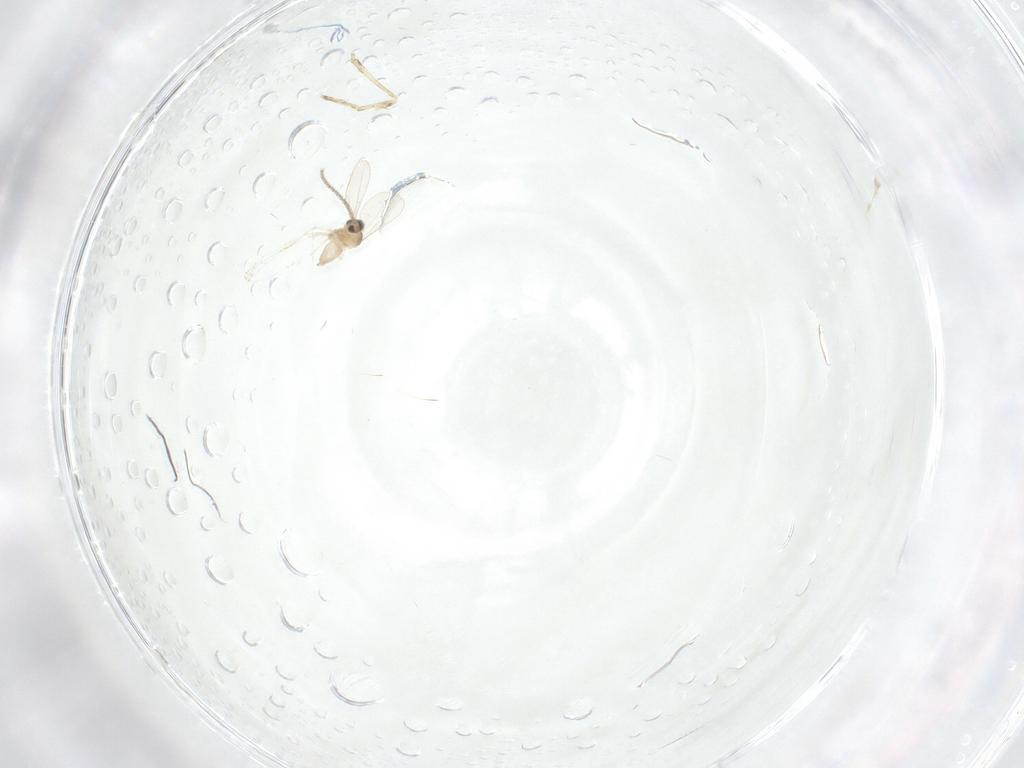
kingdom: Animalia
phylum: Arthropoda
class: Insecta
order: Diptera
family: Cecidomyiidae
